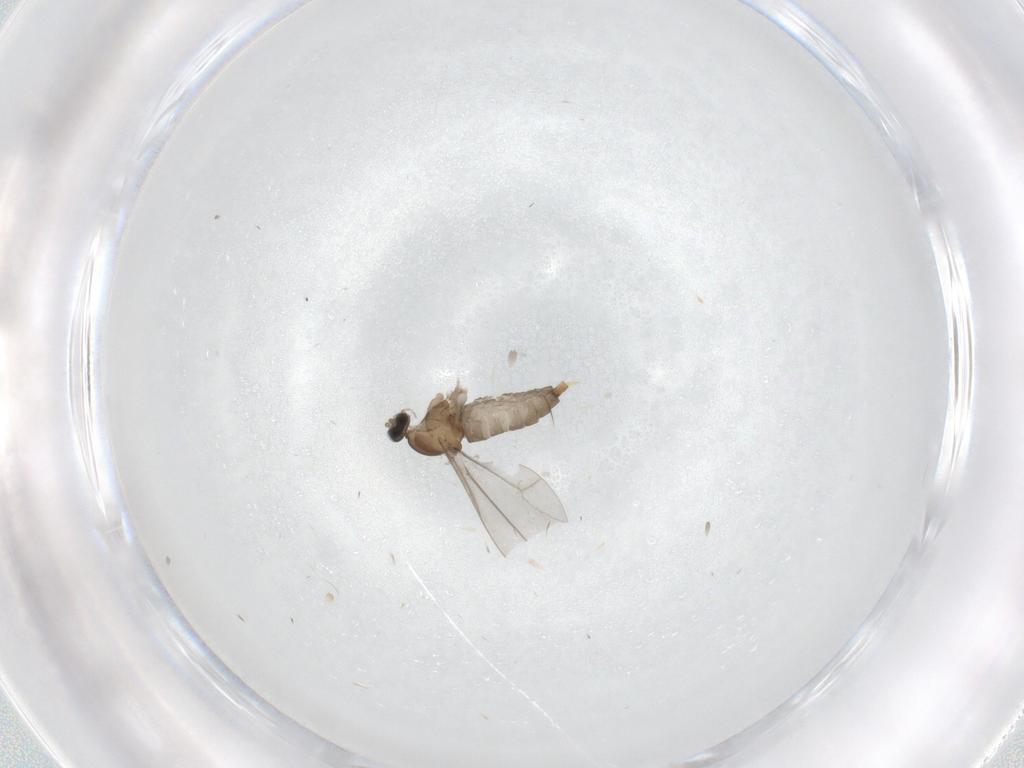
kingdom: Animalia
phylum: Arthropoda
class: Insecta
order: Diptera
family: Cecidomyiidae
